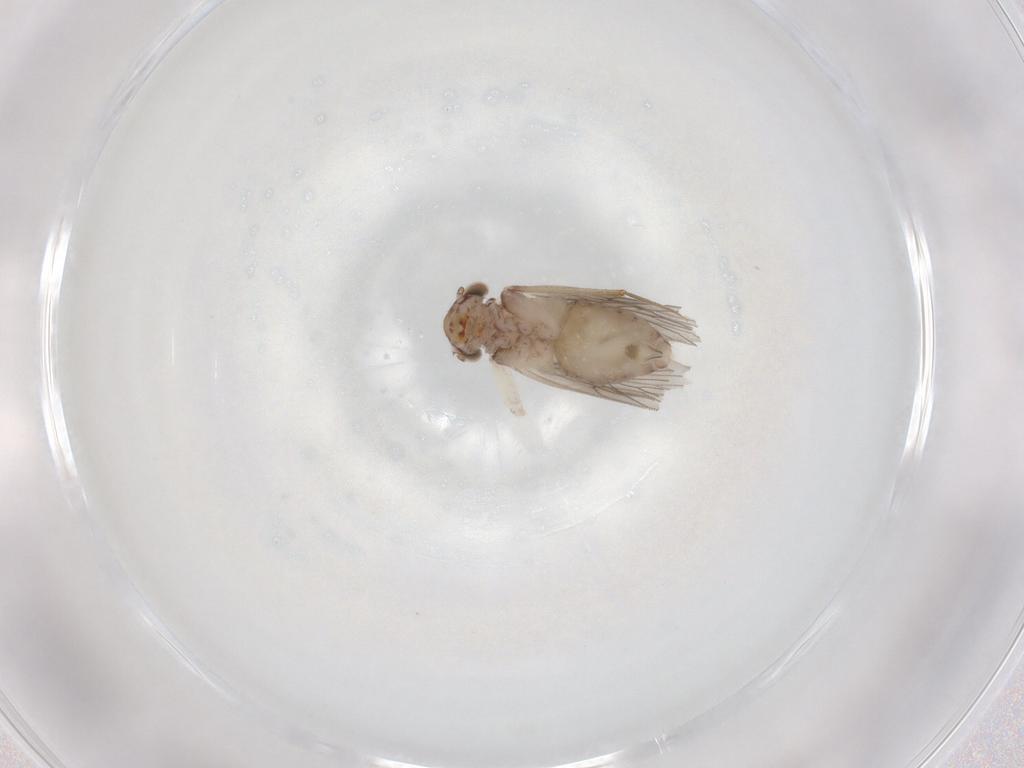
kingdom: Animalia
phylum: Arthropoda
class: Insecta
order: Psocodea
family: Lepidopsocidae
